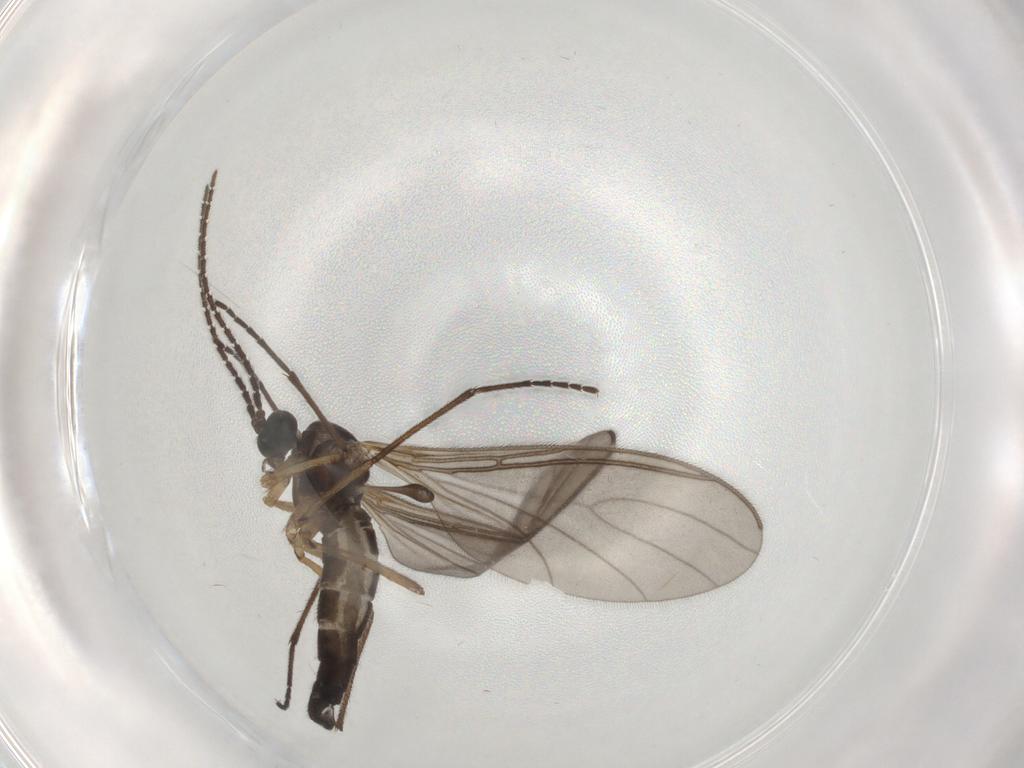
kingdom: Animalia
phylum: Arthropoda
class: Insecta
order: Diptera
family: Sciaridae
